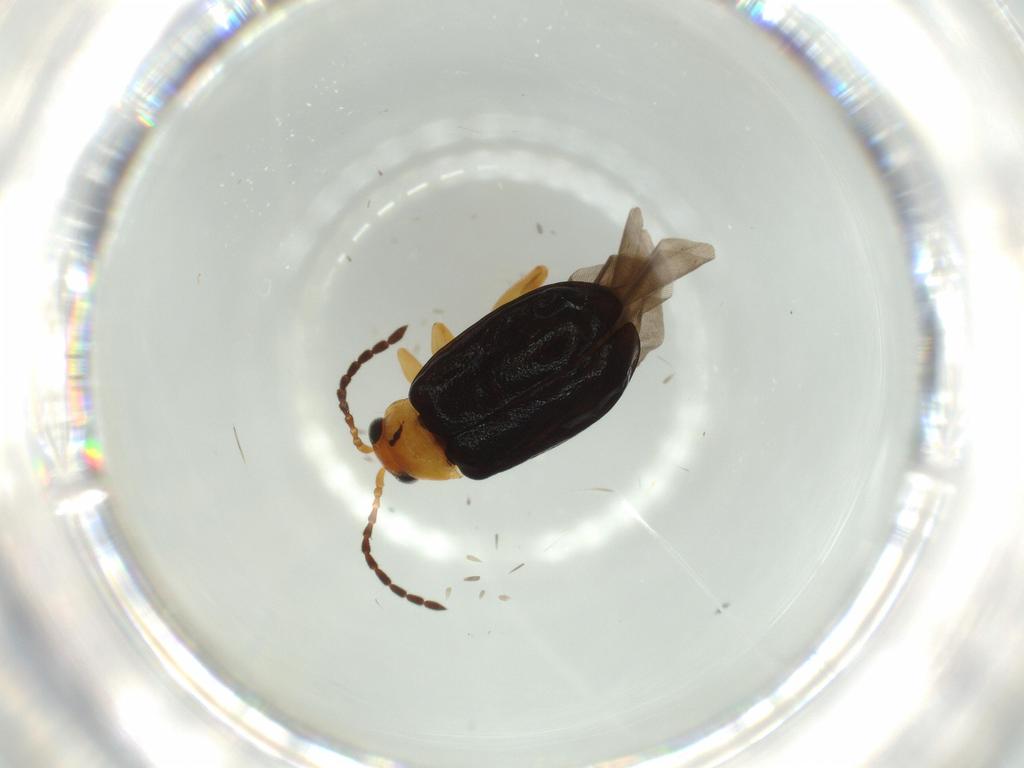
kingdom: Animalia
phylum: Arthropoda
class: Insecta
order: Coleoptera
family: Chrysomelidae
